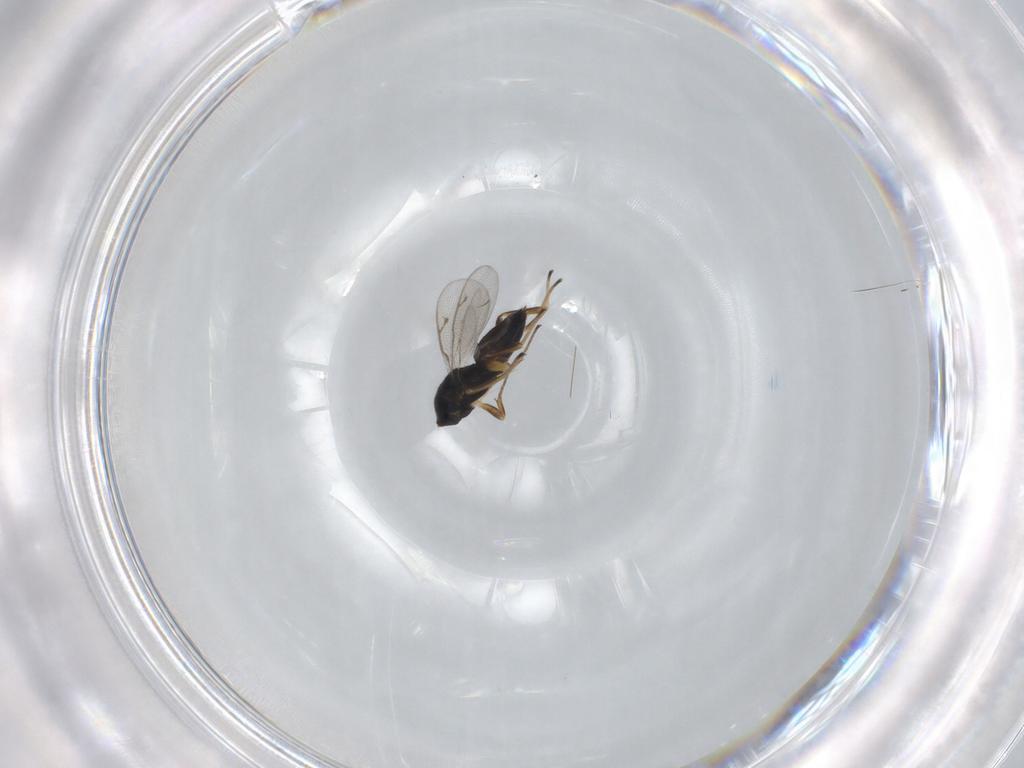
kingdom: Animalia
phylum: Arthropoda
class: Insecta
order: Hymenoptera
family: Eupelmidae
